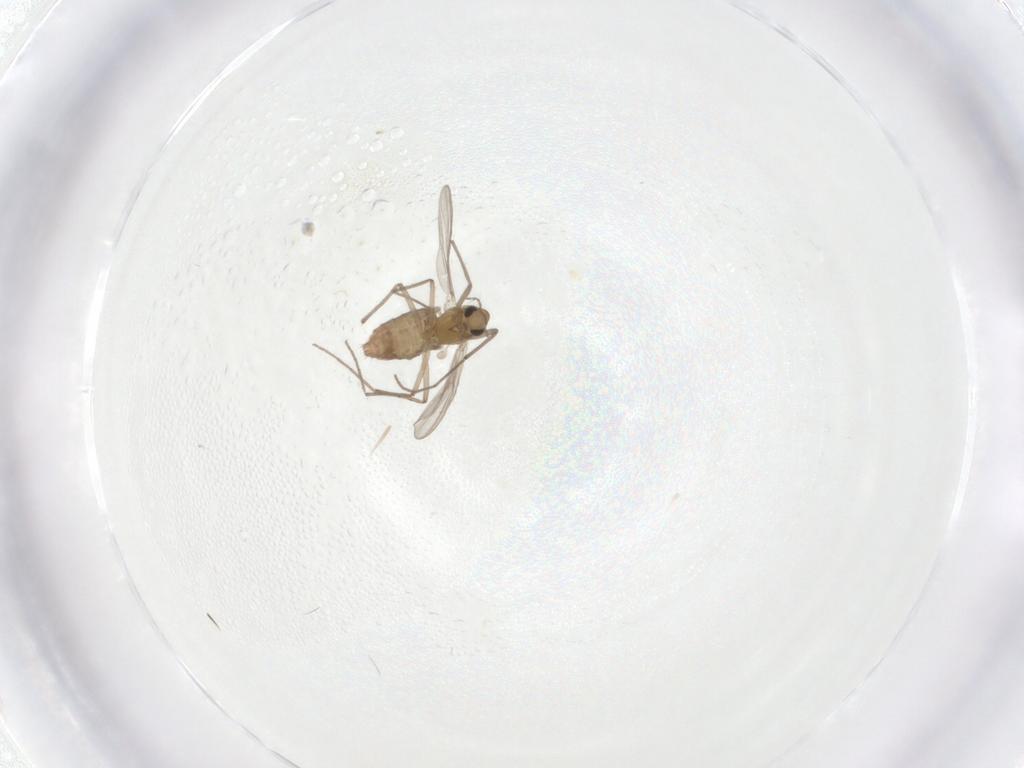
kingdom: Animalia
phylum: Arthropoda
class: Insecta
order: Diptera
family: Chironomidae
